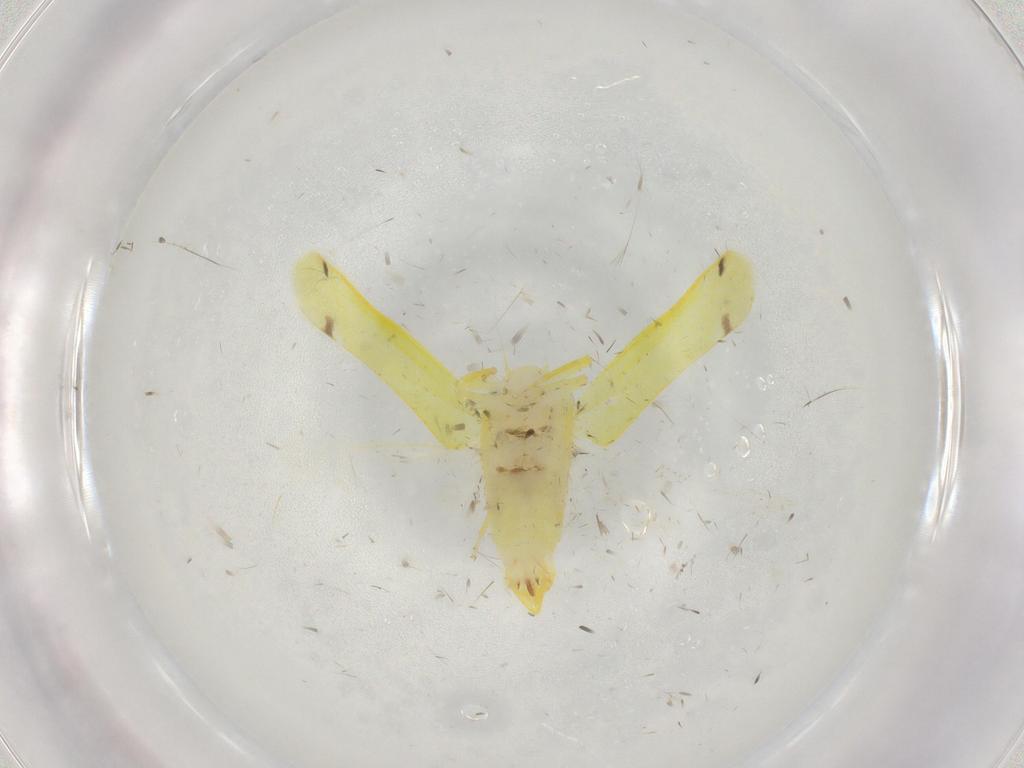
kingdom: Animalia
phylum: Arthropoda
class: Insecta
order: Hemiptera
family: Cicadellidae
